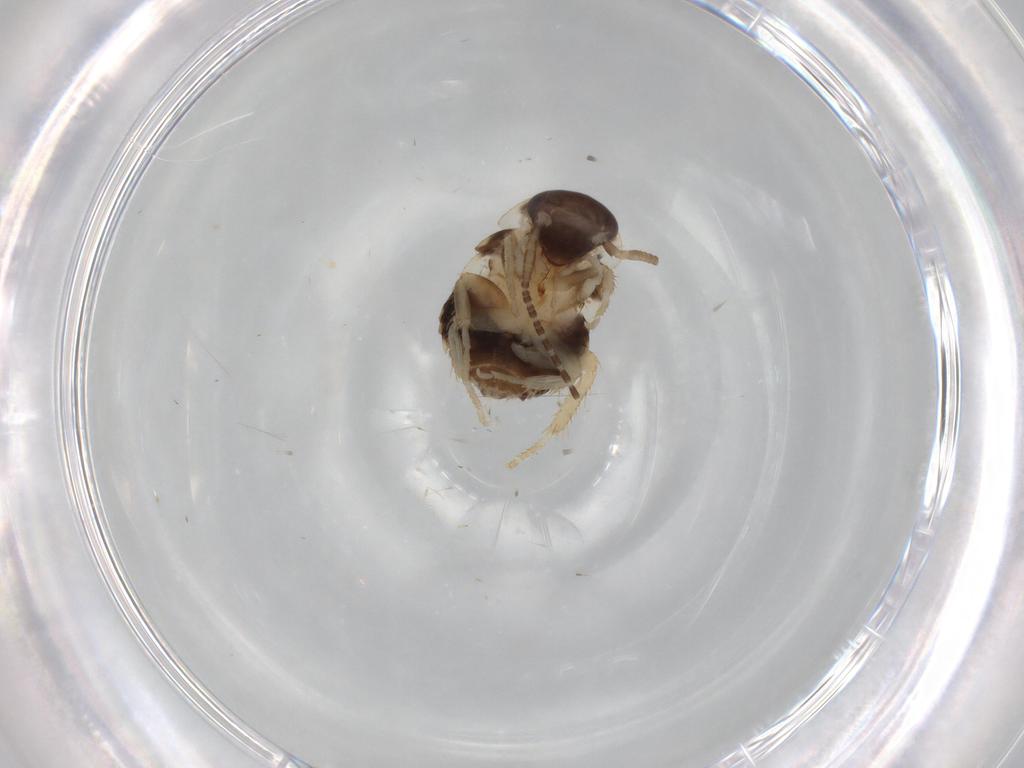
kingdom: Animalia
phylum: Arthropoda
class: Insecta
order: Blattodea
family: Ectobiidae
